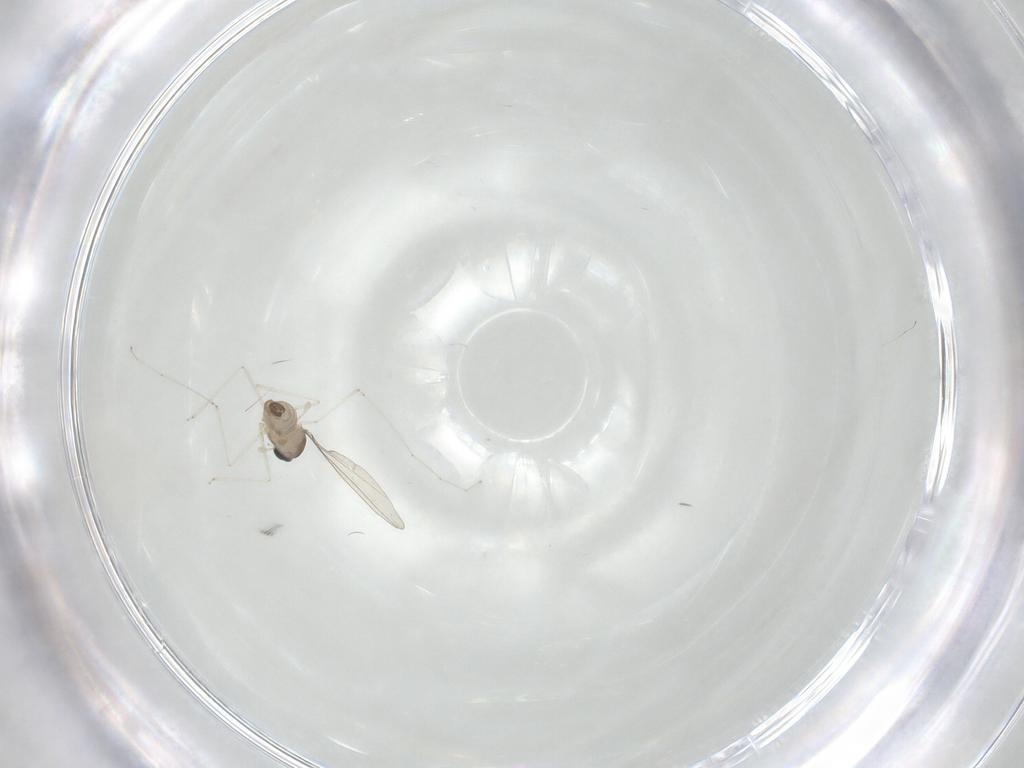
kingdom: Animalia
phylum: Arthropoda
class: Insecta
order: Diptera
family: Cecidomyiidae
